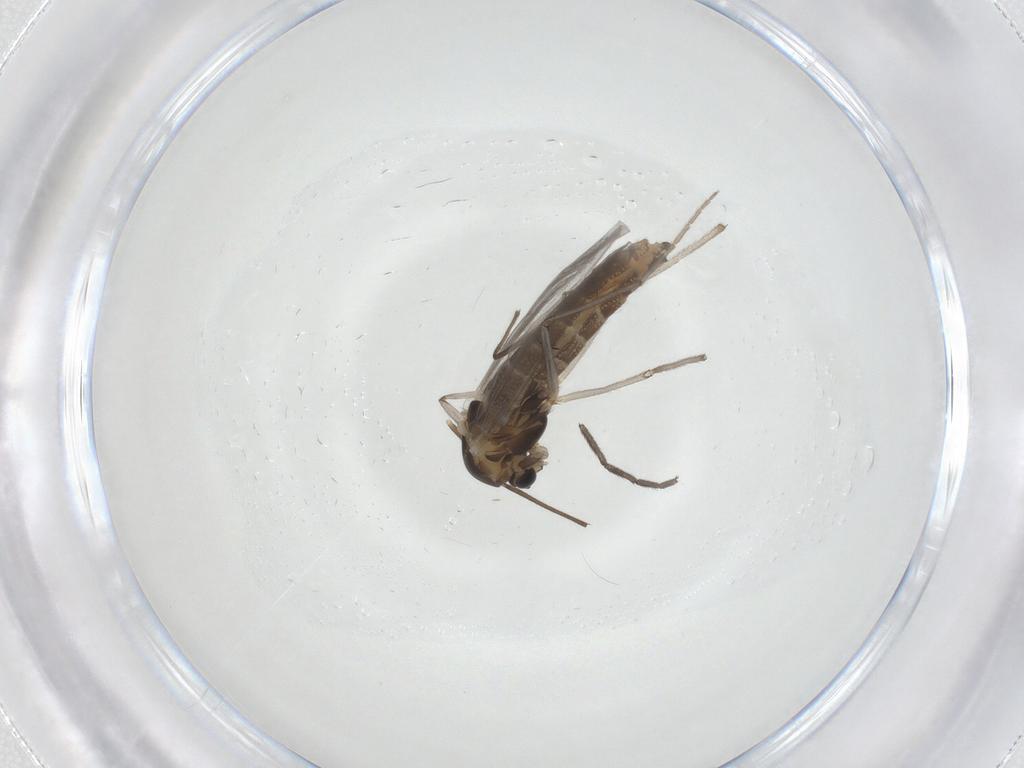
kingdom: Animalia
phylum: Arthropoda
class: Insecta
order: Diptera
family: Chironomidae
